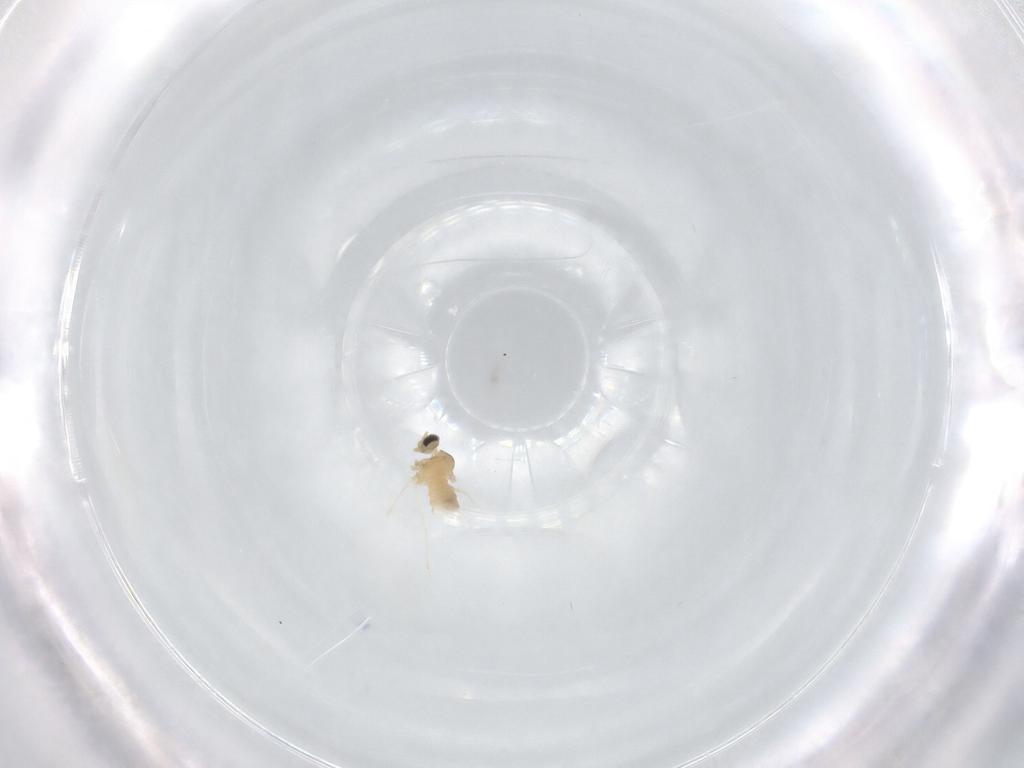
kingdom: Animalia
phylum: Arthropoda
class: Insecta
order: Diptera
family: Cecidomyiidae
